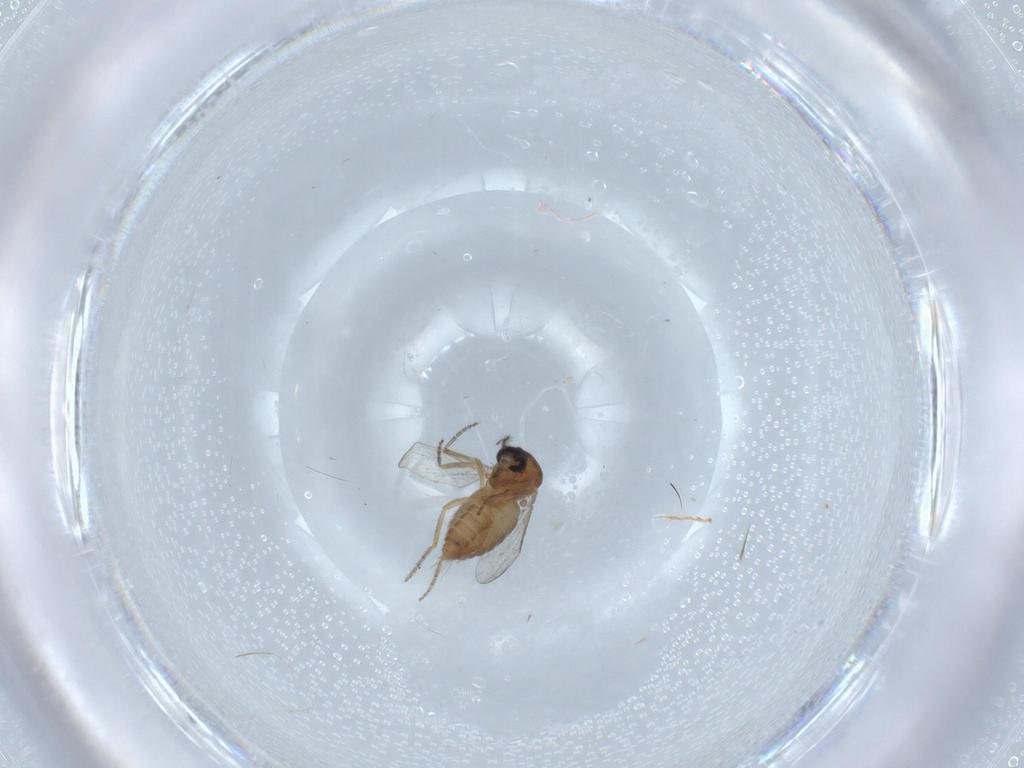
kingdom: Animalia
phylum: Arthropoda
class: Insecta
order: Diptera
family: Ceratopogonidae
